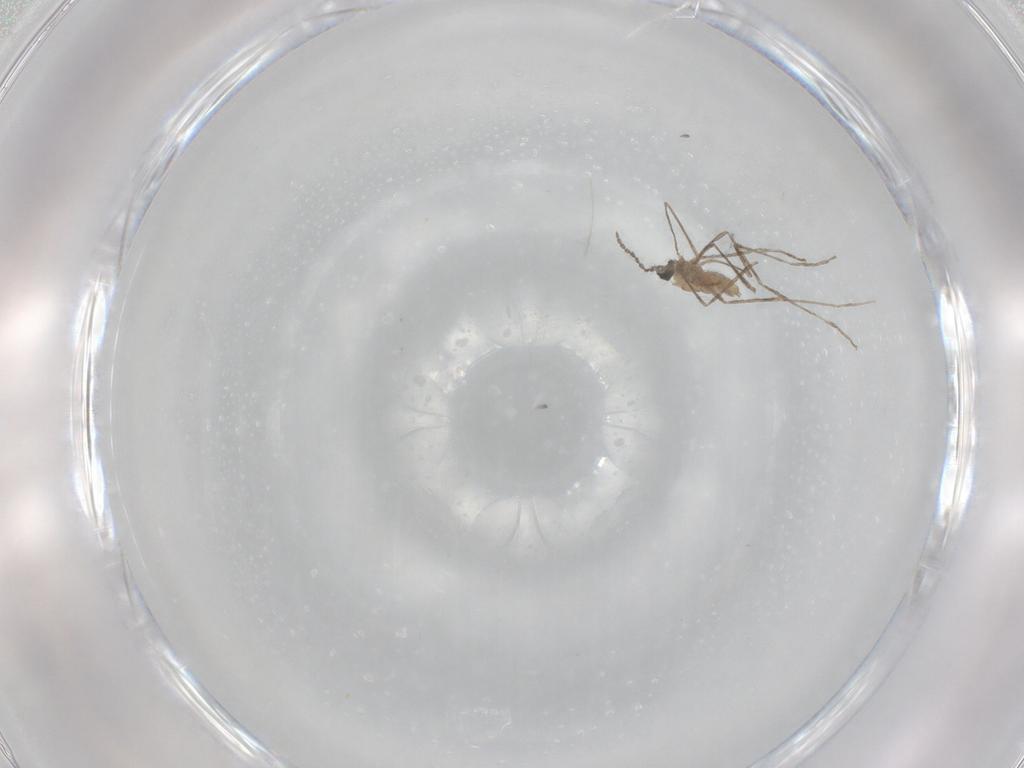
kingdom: Animalia
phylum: Arthropoda
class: Insecta
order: Diptera
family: Cecidomyiidae
